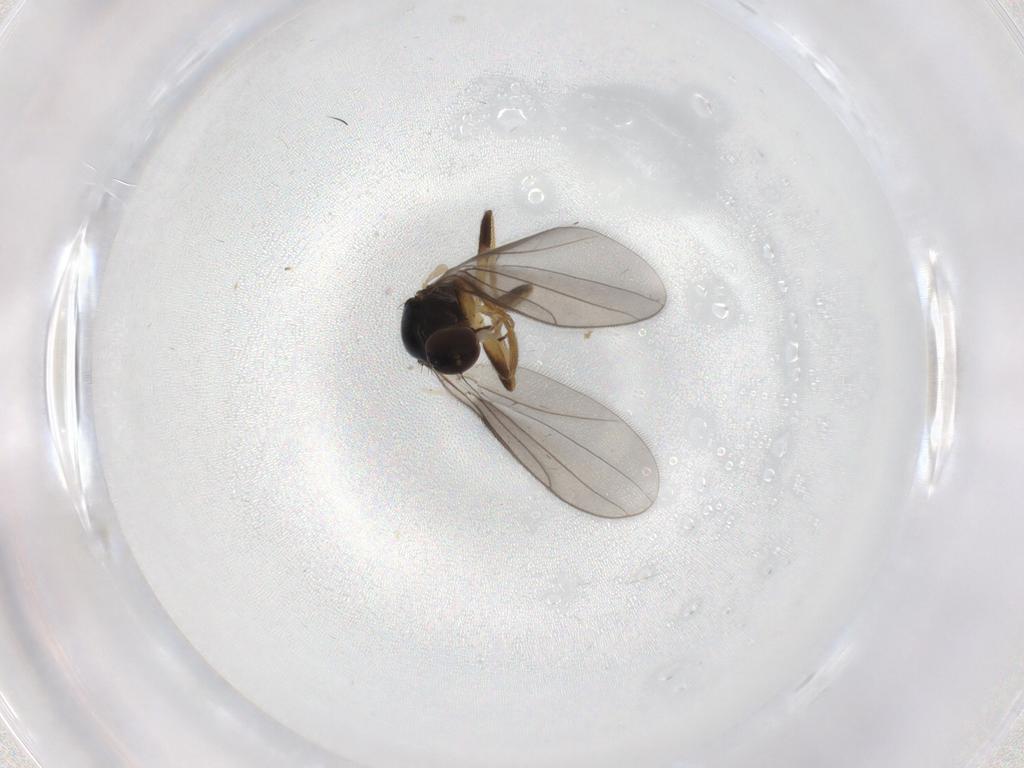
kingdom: Animalia
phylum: Arthropoda
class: Insecta
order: Diptera
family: Hybotidae
